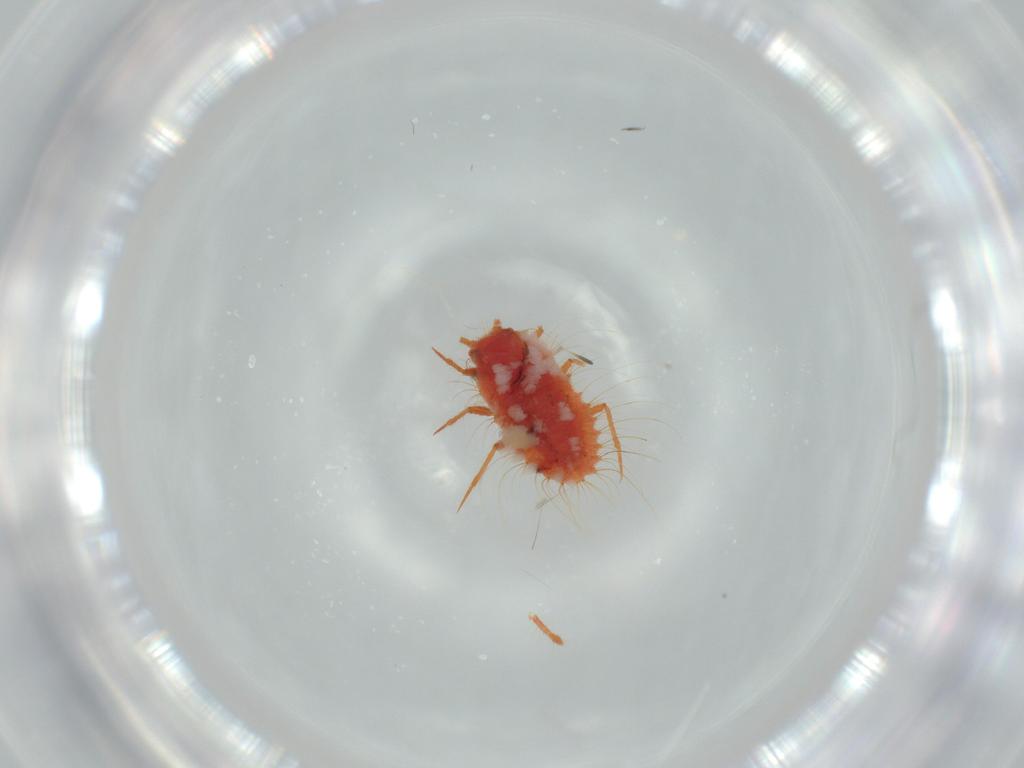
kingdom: Animalia
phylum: Arthropoda
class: Insecta
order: Hemiptera
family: Coccoidea_incertae_sedis
